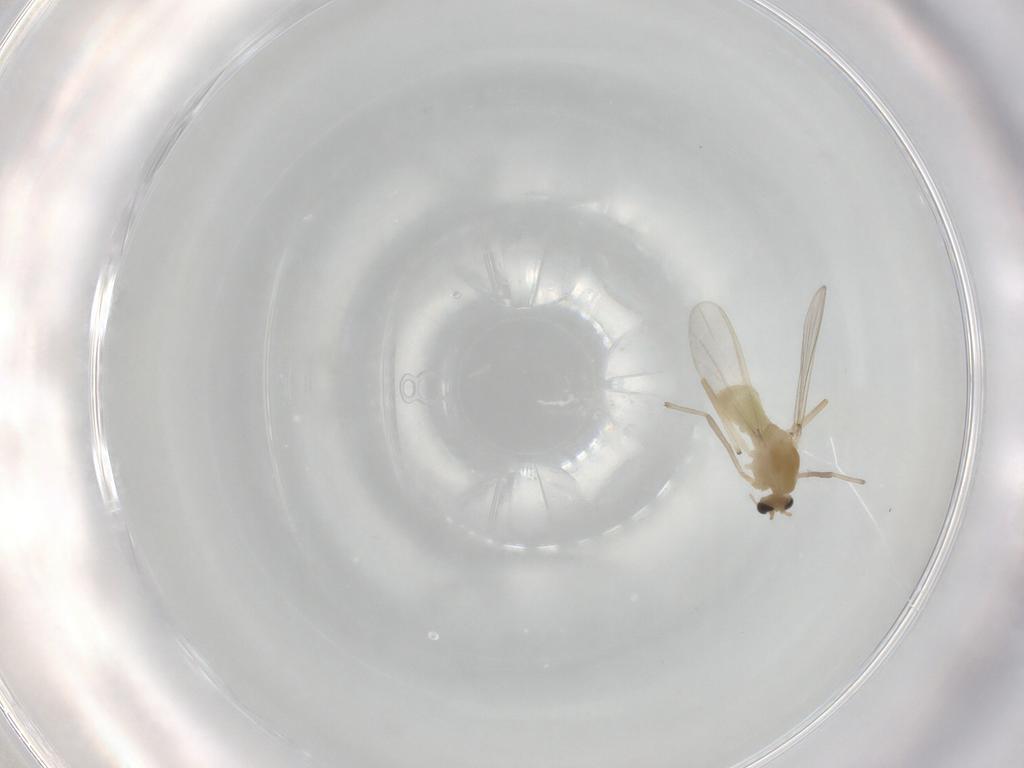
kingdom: Animalia
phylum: Arthropoda
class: Insecta
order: Diptera
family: Chironomidae
